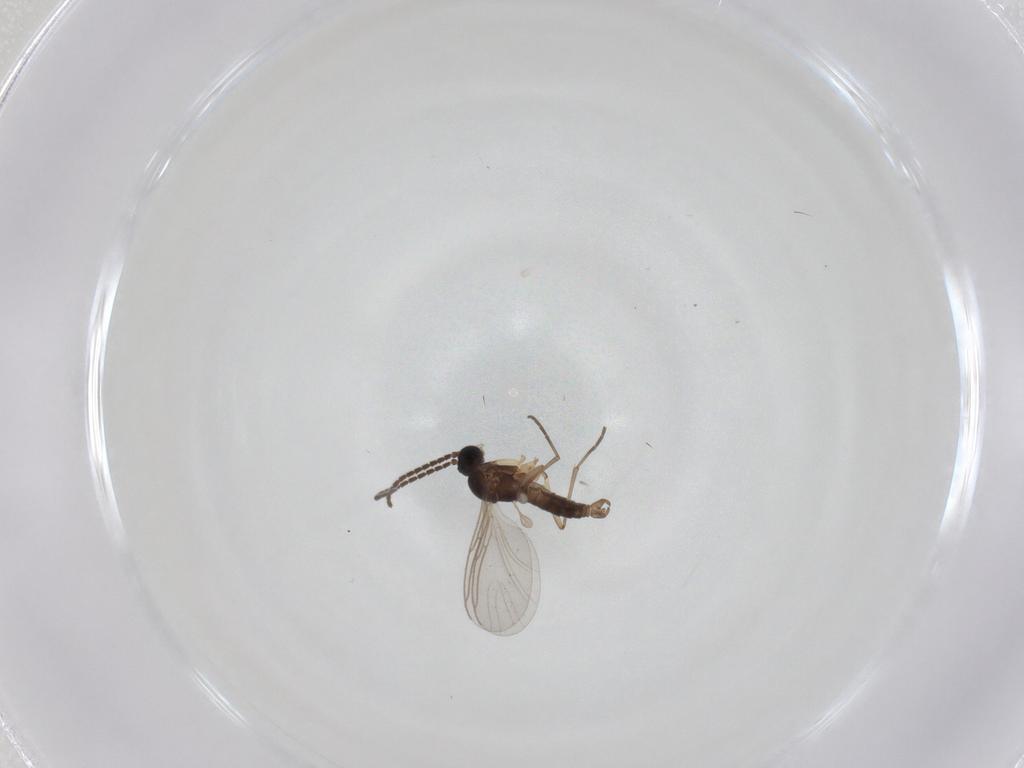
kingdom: Animalia
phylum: Arthropoda
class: Insecta
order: Diptera
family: Sciaridae
